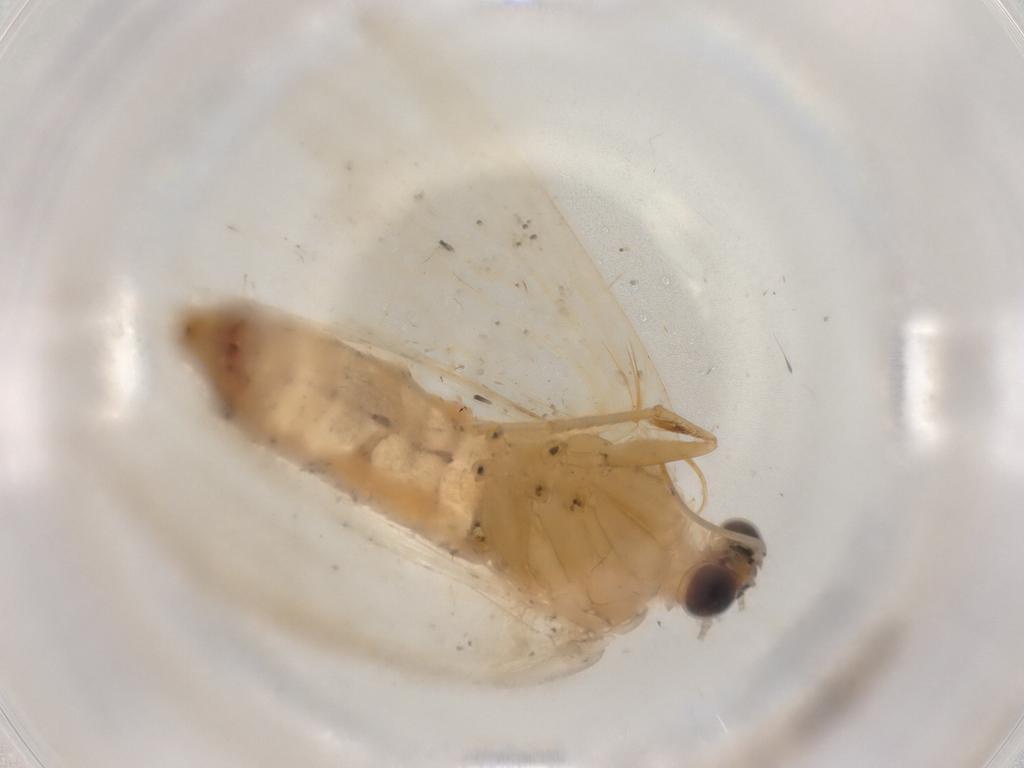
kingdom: Animalia
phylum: Arthropoda
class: Insecta
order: Lepidoptera
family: Geometridae
